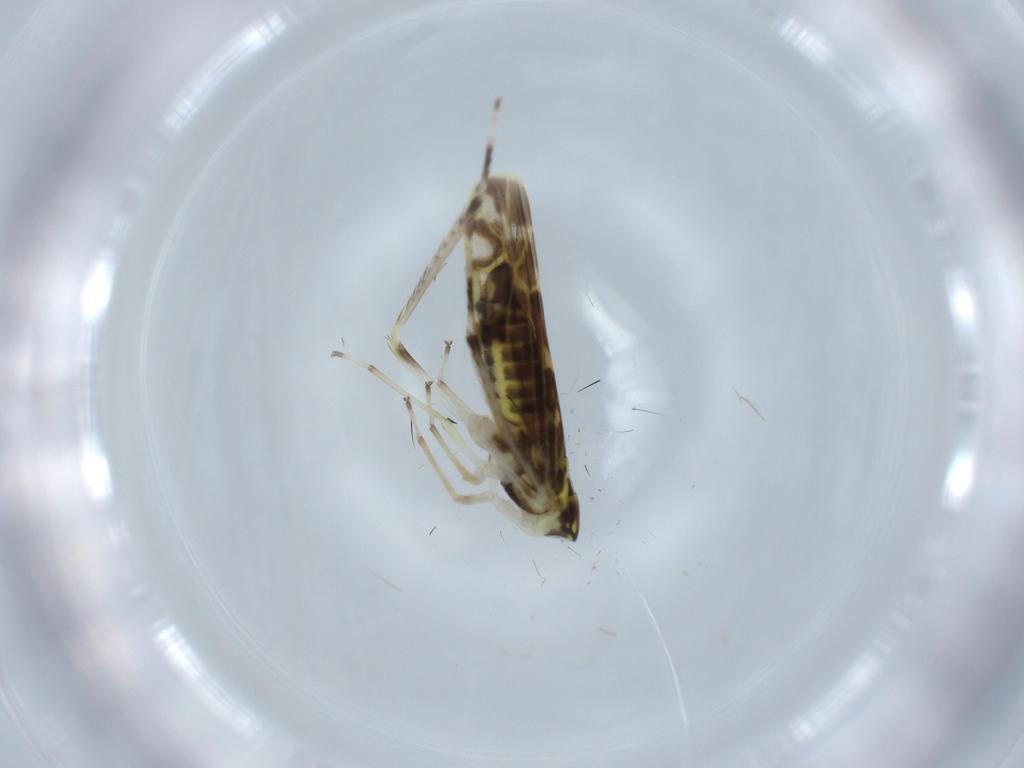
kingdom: Animalia
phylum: Arthropoda
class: Insecta
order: Hemiptera
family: Cicadellidae
